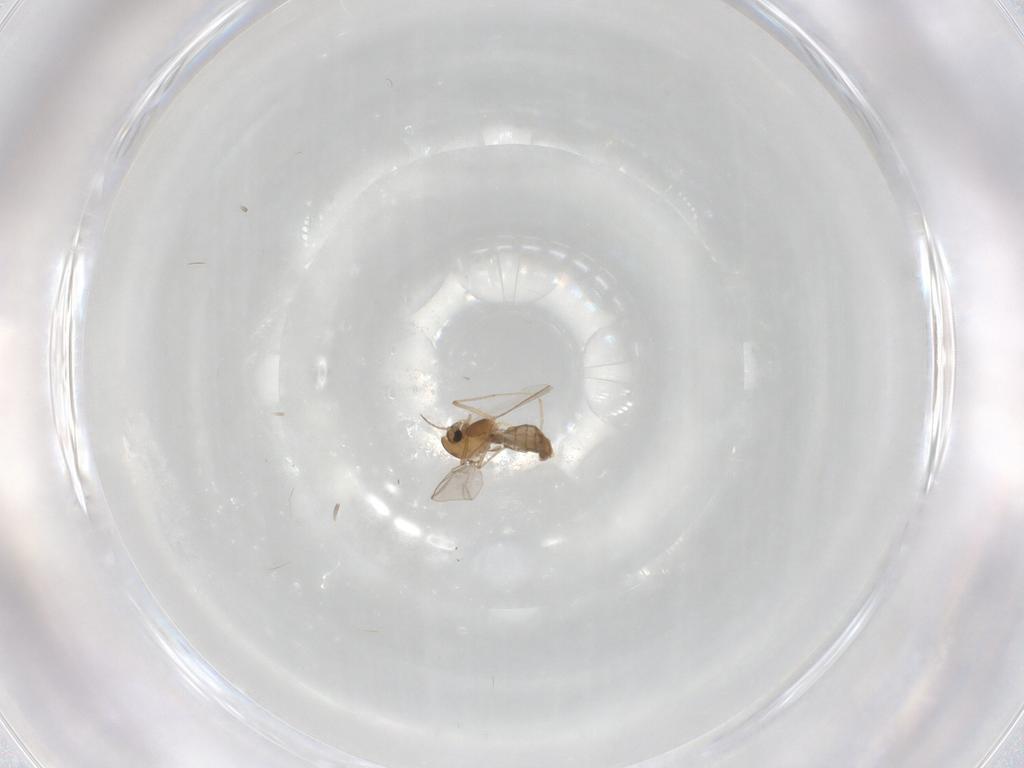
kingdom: Animalia
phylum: Arthropoda
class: Insecta
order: Diptera
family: Chironomidae
